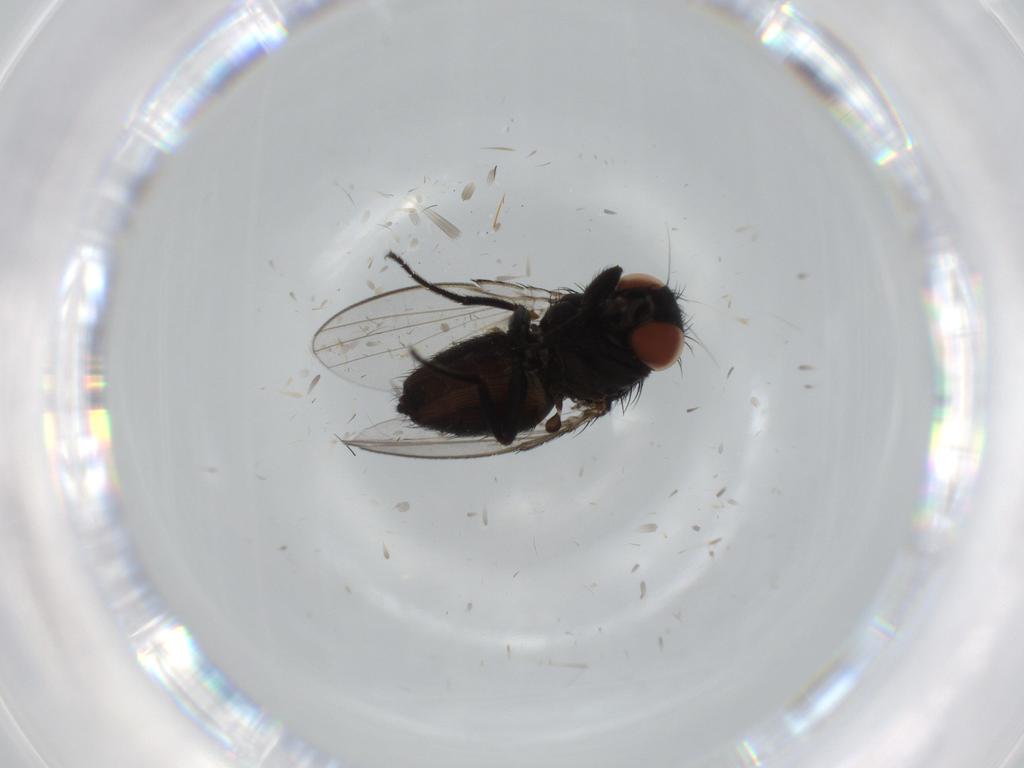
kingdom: Animalia
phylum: Arthropoda
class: Insecta
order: Diptera
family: Milichiidae
